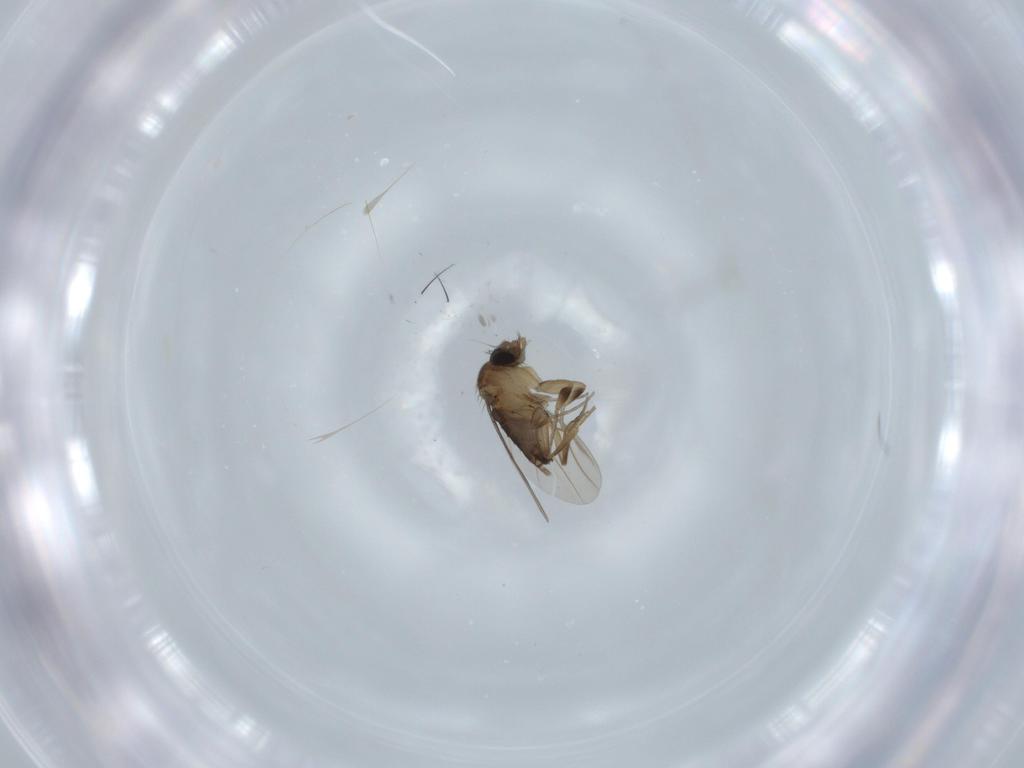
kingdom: Animalia
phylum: Arthropoda
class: Insecta
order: Diptera
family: Phoridae
